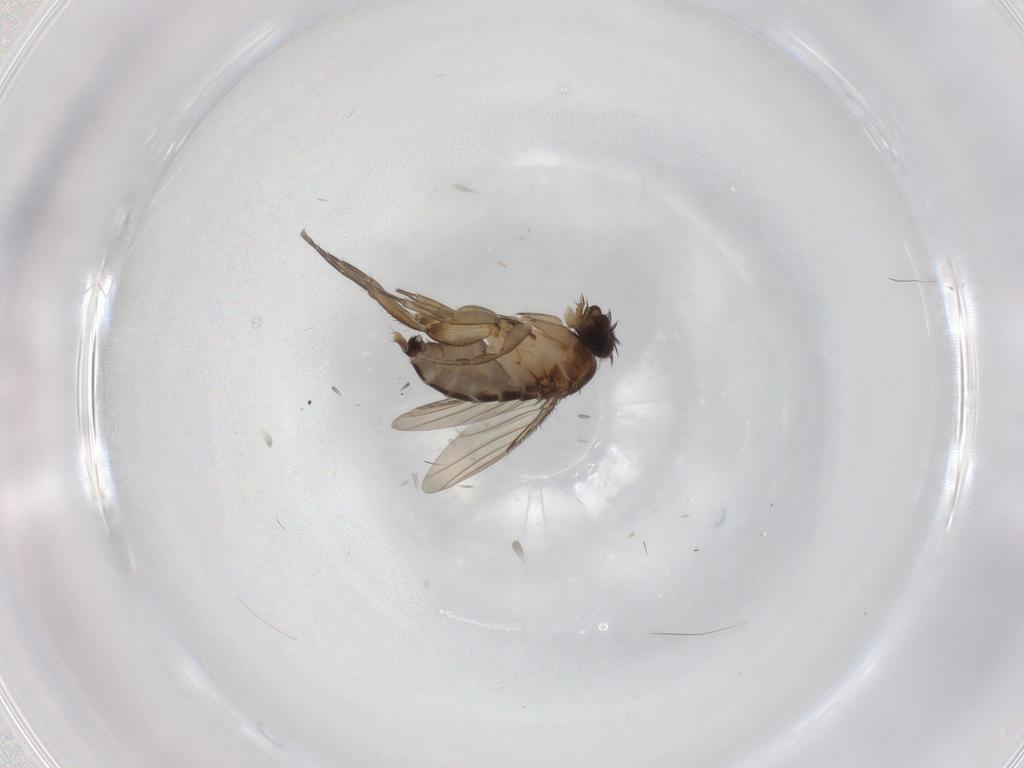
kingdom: Animalia
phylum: Arthropoda
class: Insecta
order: Diptera
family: Phoridae
